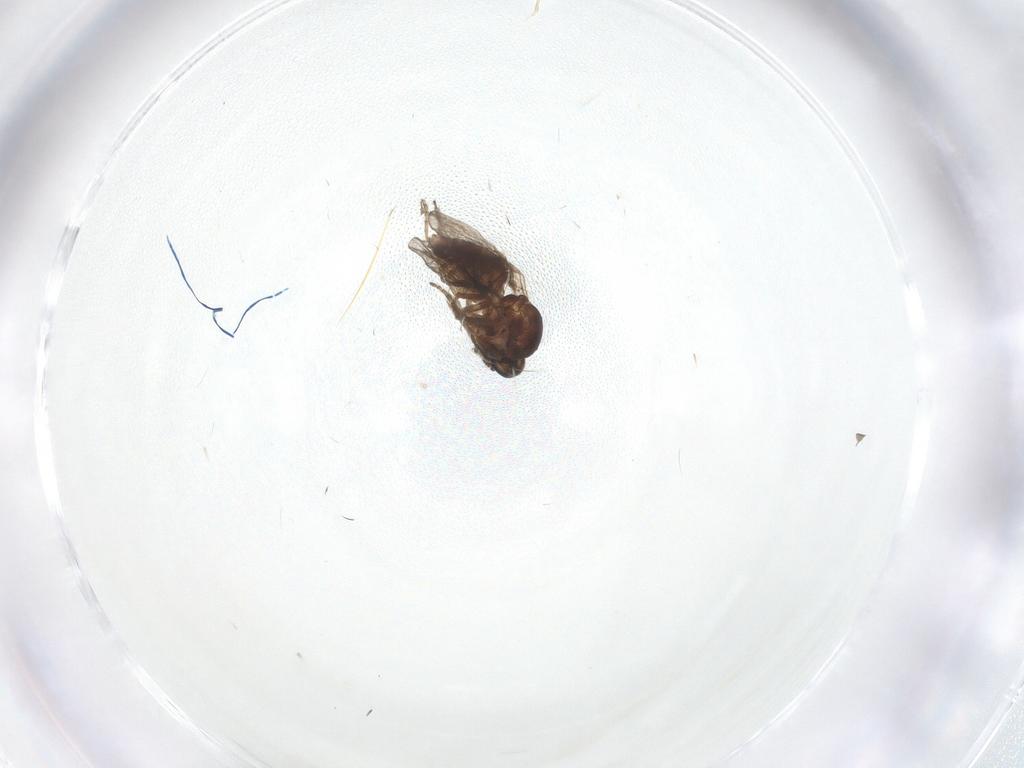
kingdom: Animalia
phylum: Arthropoda
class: Insecta
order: Diptera
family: Ceratopogonidae
